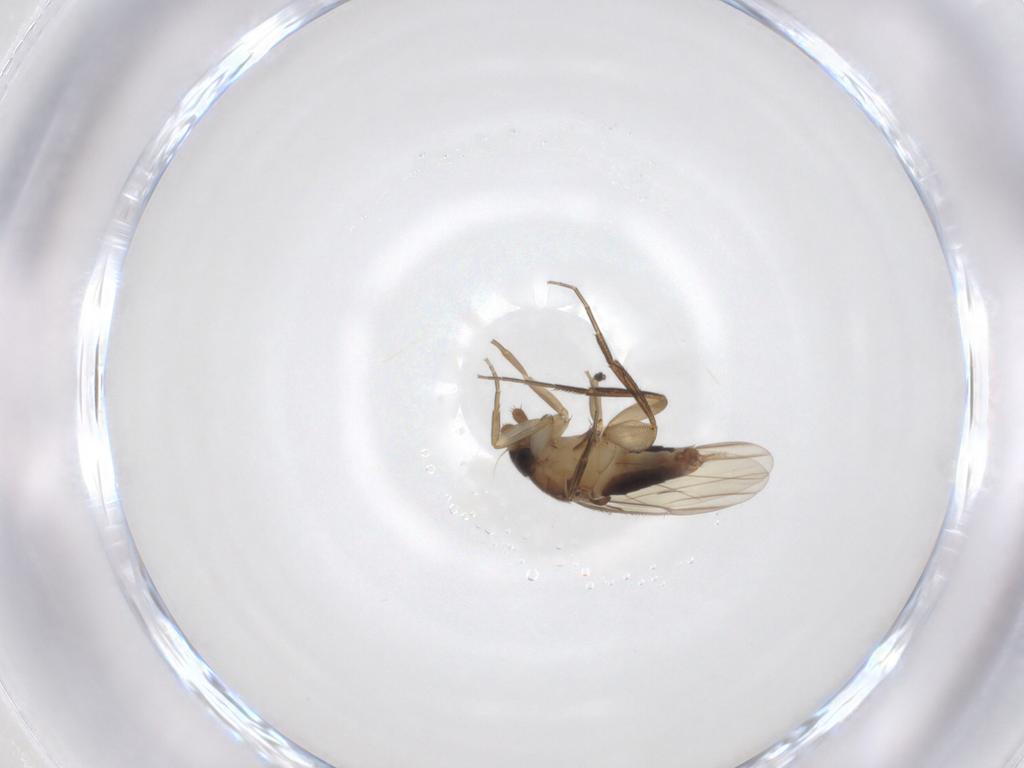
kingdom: Animalia
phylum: Arthropoda
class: Insecta
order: Diptera
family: Phoridae
